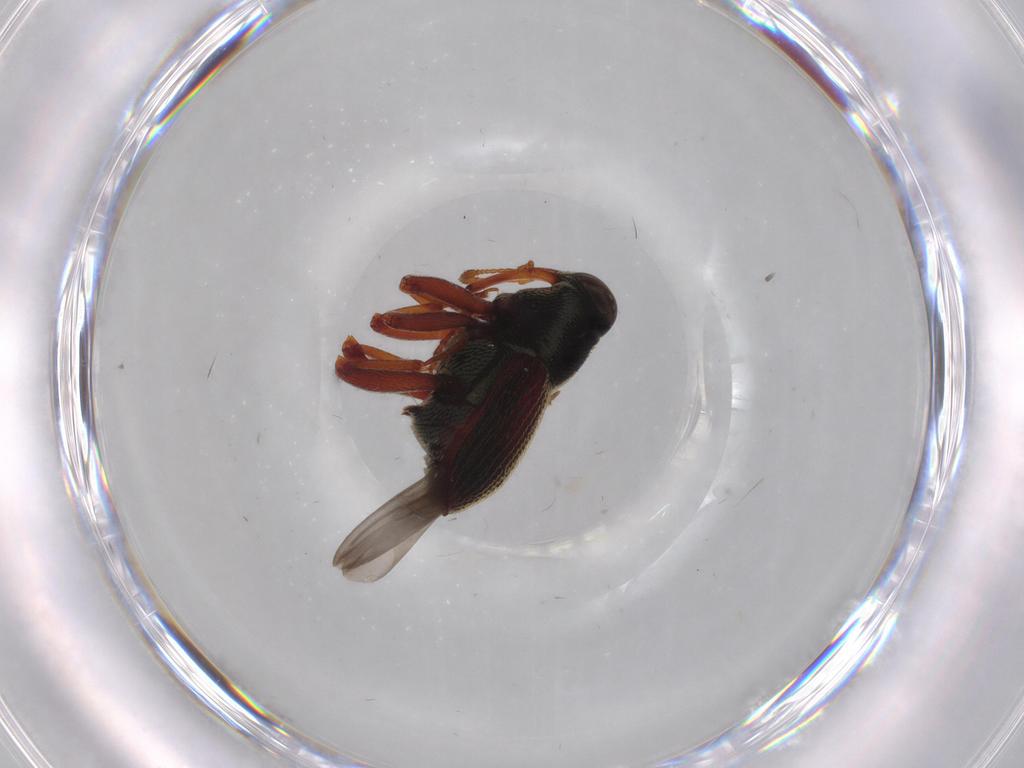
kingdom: Animalia
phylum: Arthropoda
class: Insecta
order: Coleoptera
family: Curculionidae
